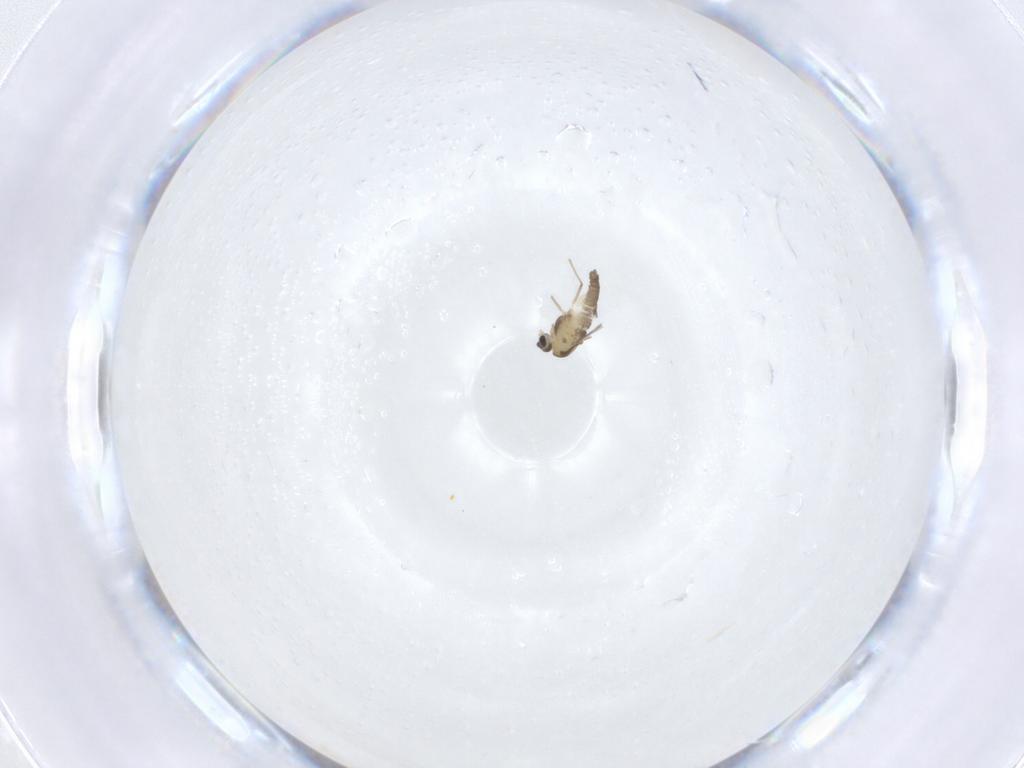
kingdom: Animalia
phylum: Arthropoda
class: Insecta
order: Diptera
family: Chironomidae
